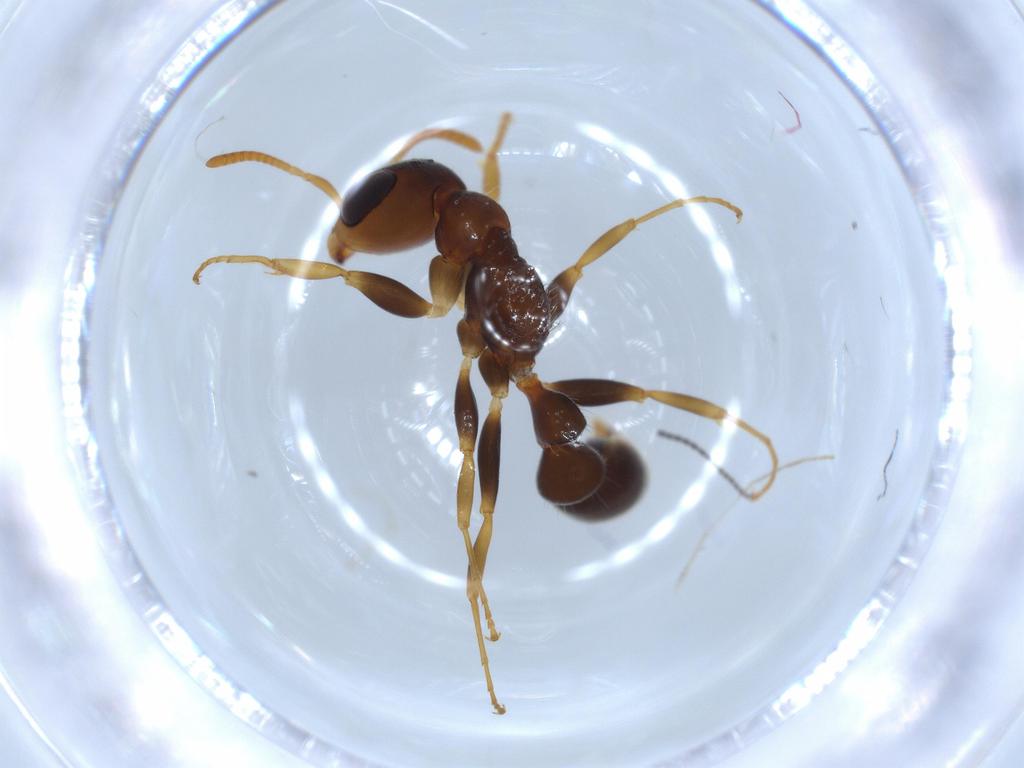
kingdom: Animalia
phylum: Arthropoda
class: Insecta
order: Hymenoptera
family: Formicidae
